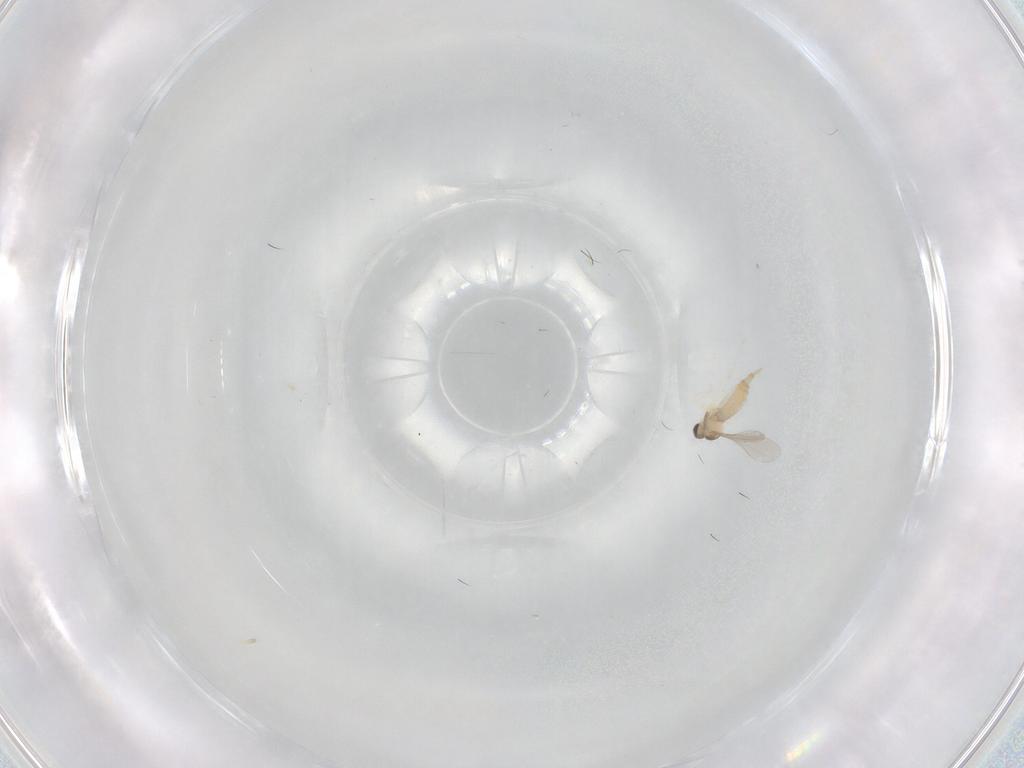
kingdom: Animalia
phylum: Arthropoda
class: Insecta
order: Diptera
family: Cecidomyiidae
